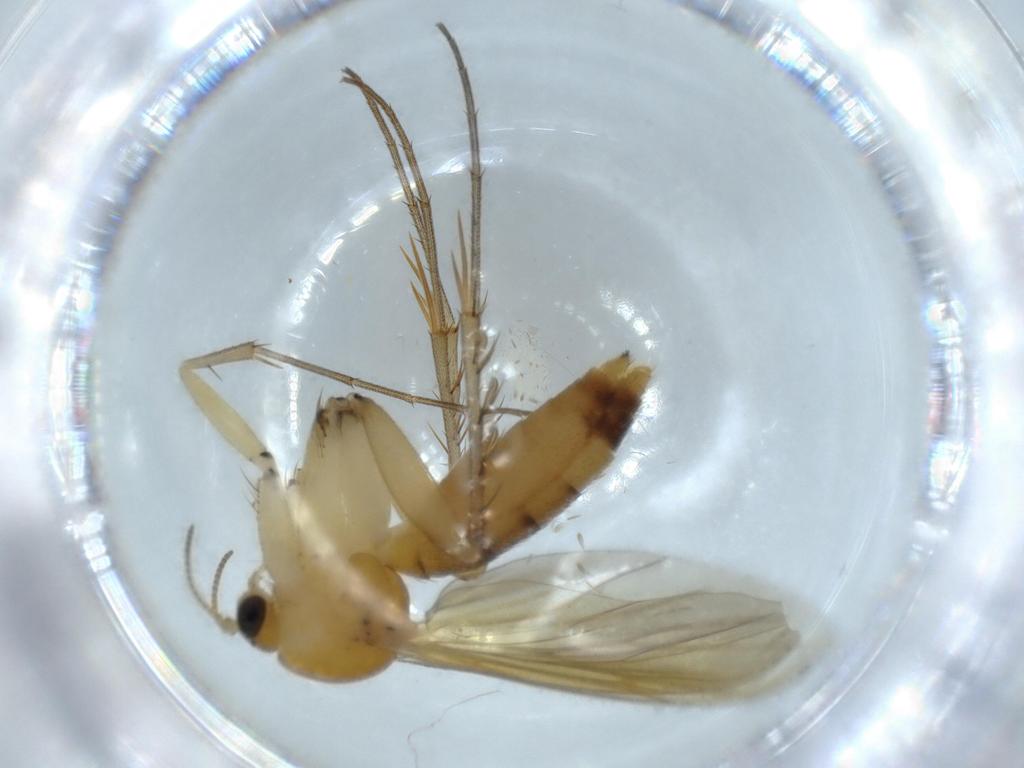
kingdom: Animalia
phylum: Arthropoda
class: Insecta
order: Diptera
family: Mycetophilidae
